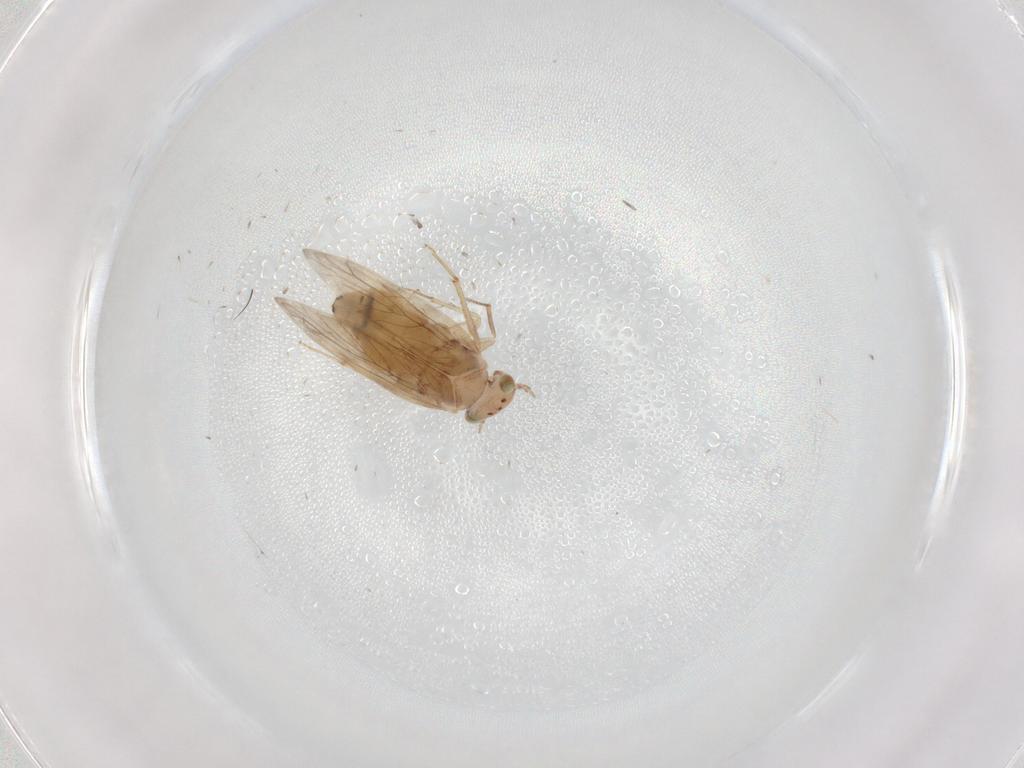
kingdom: Animalia
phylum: Arthropoda
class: Insecta
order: Psocodea
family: Lepidopsocidae
